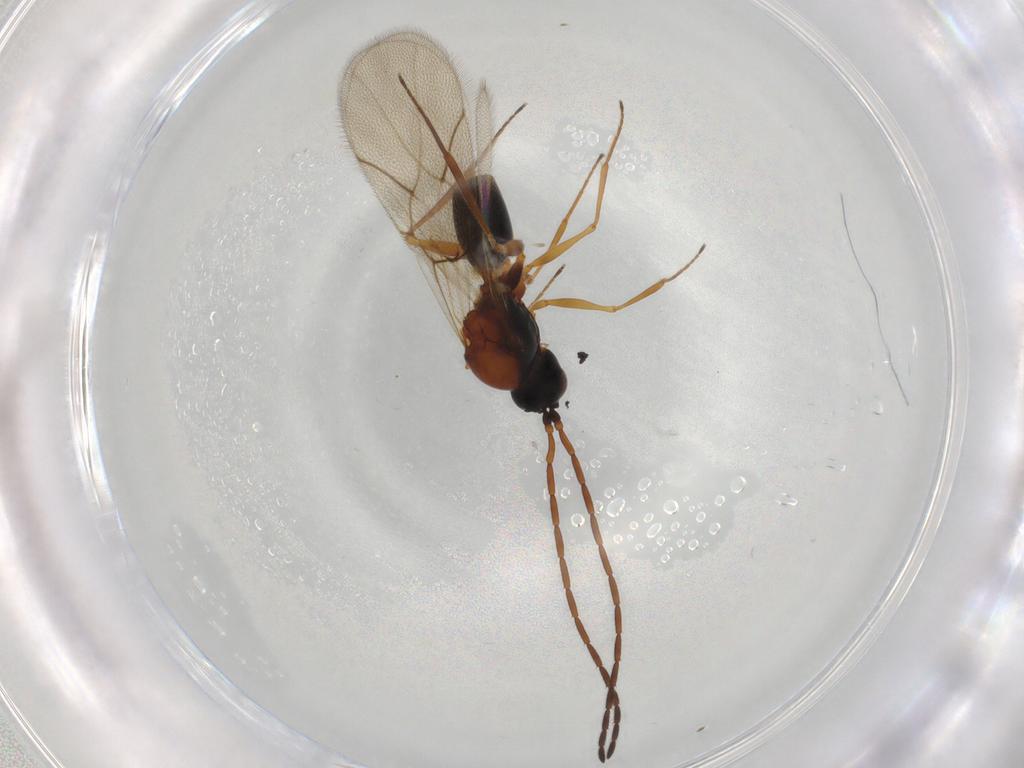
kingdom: Animalia
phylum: Arthropoda
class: Insecta
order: Hymenoptera
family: Figitidae
